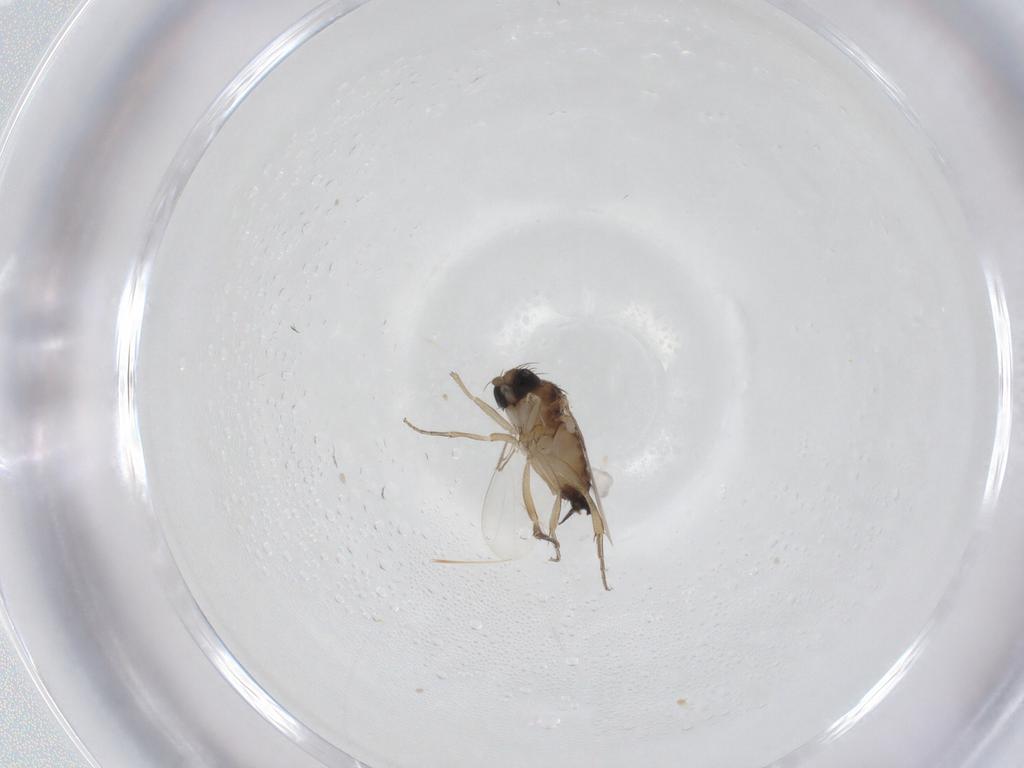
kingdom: Animalia
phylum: Arthropoda
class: Insecta
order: Diptera
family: Phoridae
